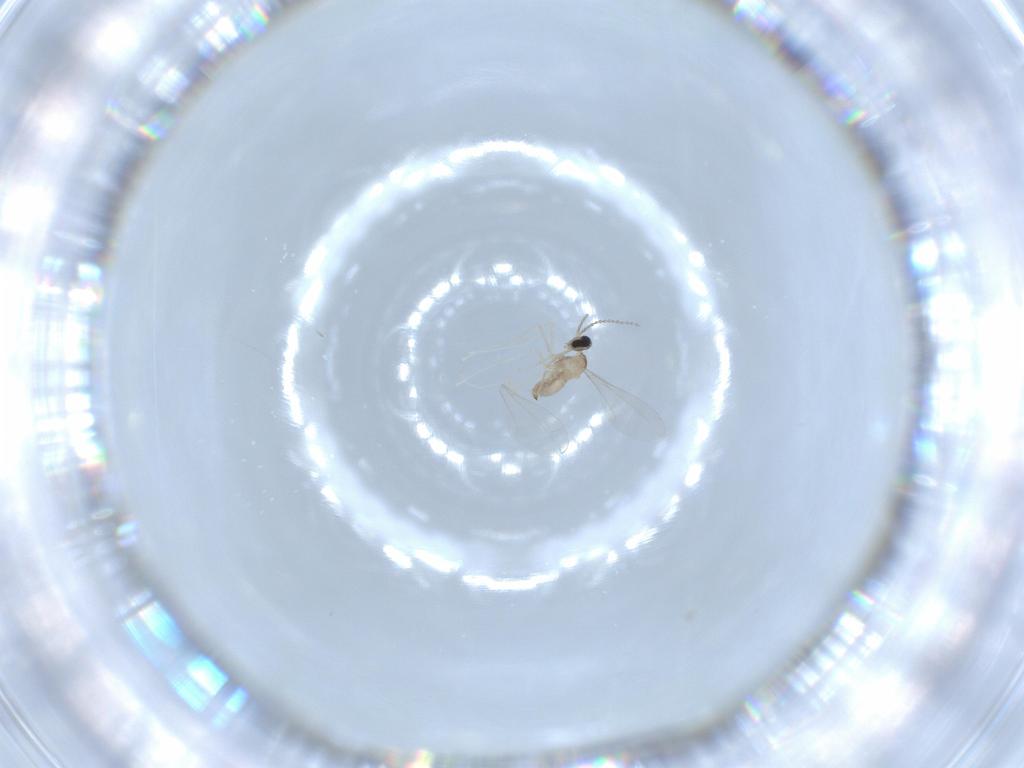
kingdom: Animalia
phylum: Arthropoda
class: Insecta
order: Diptera
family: Cecidomyiidae
